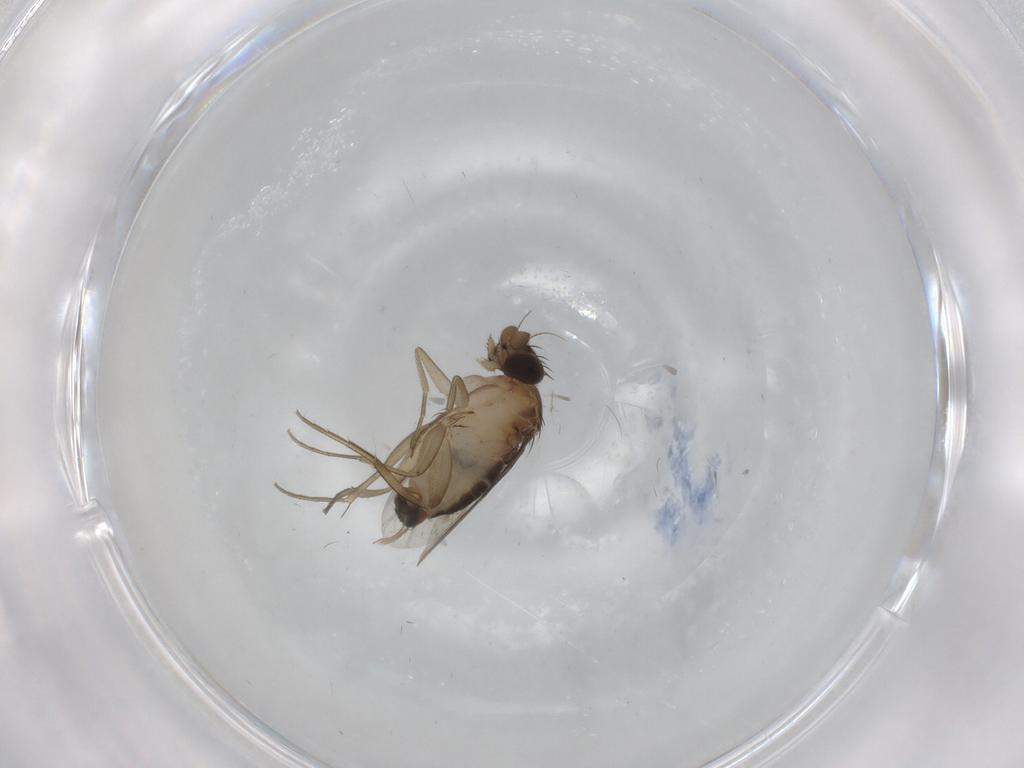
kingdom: Animalia
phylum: Arthropoda
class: Insecta
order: Diptera
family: Phoridae
